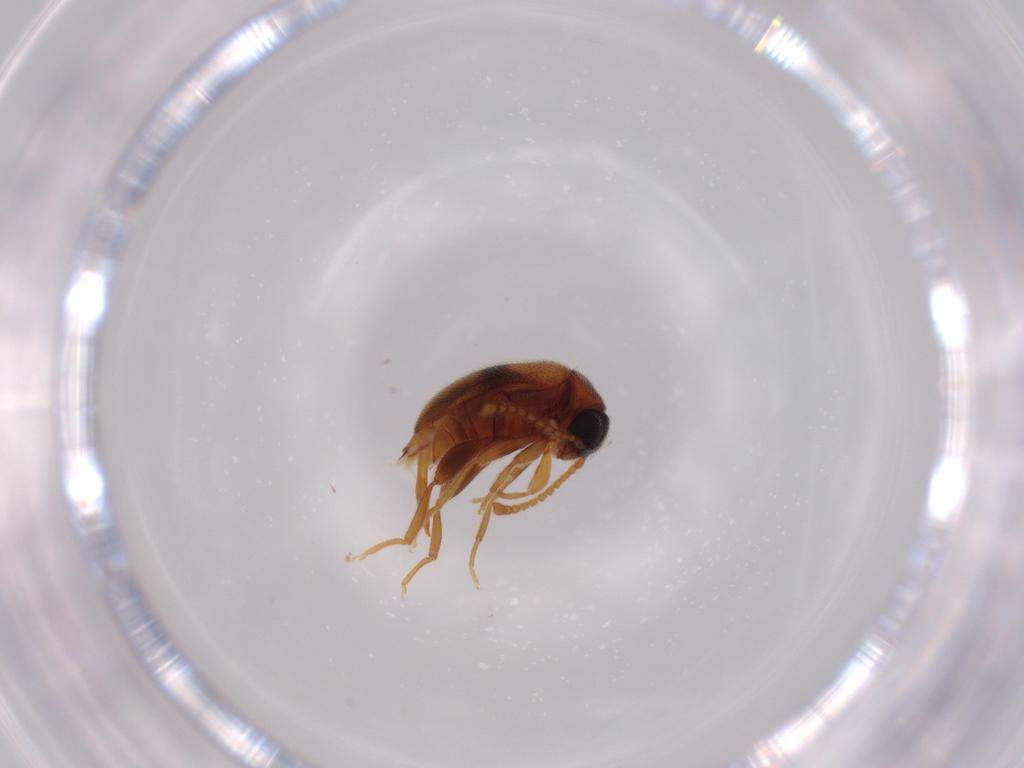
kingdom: Animalia
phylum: Arthropoda
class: Insecta
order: Coleoptera
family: Aderidae
